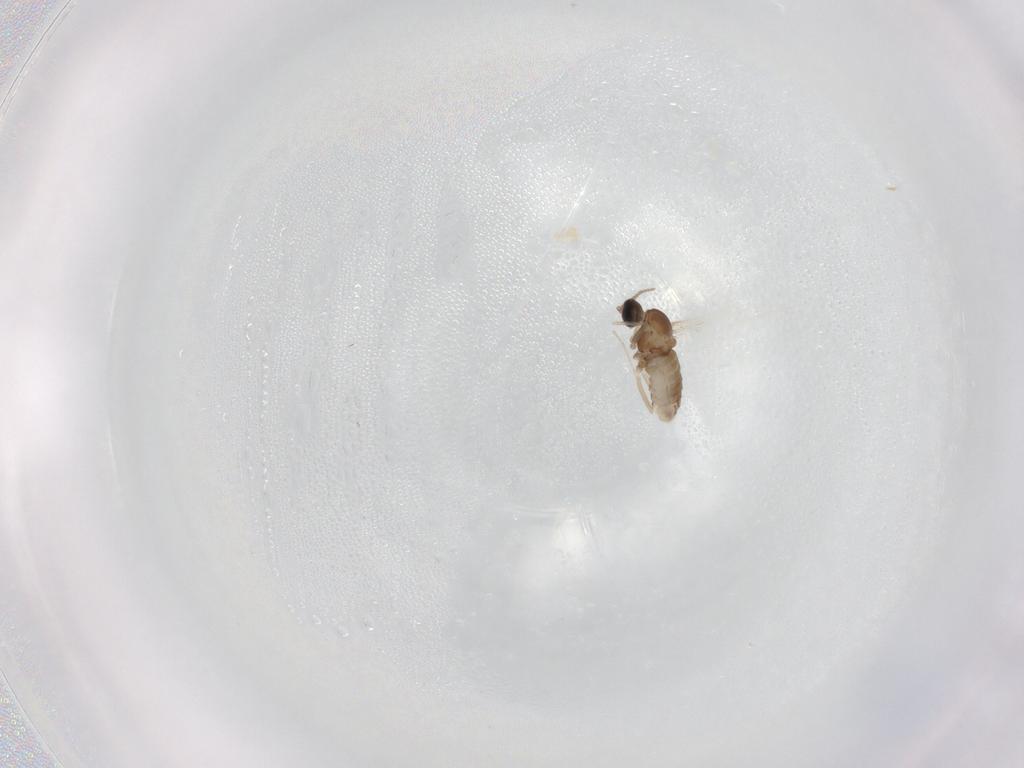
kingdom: Animalia
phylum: Arthropoda
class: Insecta
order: Diptera
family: Cecidomyiidae
